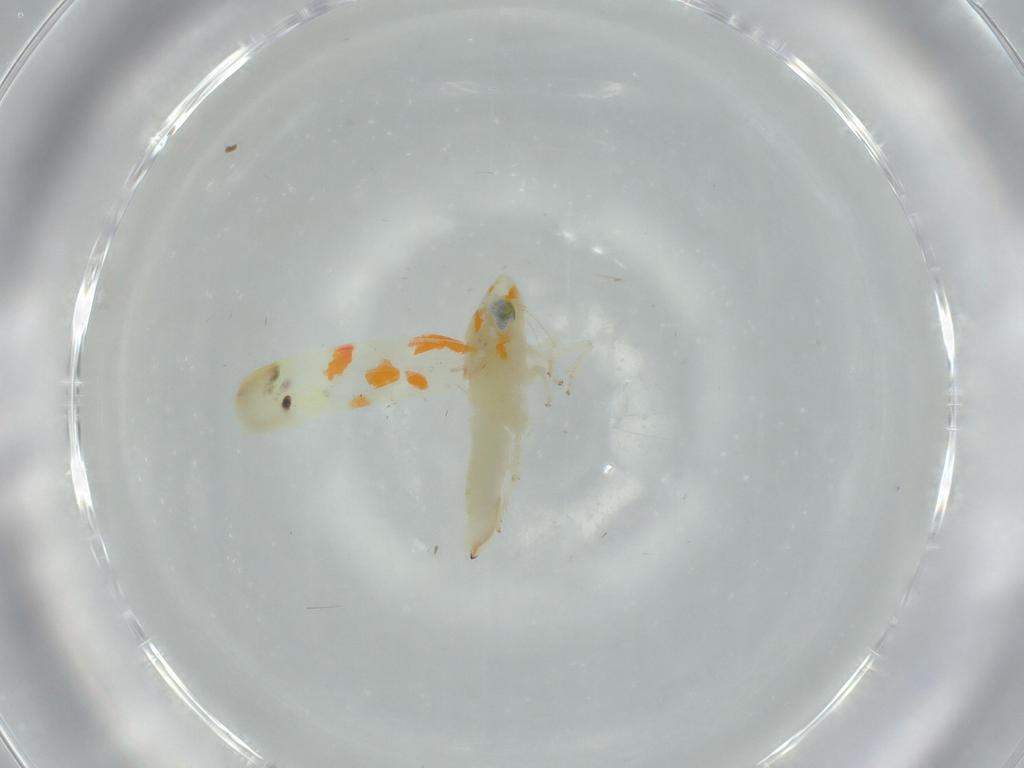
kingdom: Animalia
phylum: Arthropoda
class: Insecta
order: Hemiptera
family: Cicadellidae
